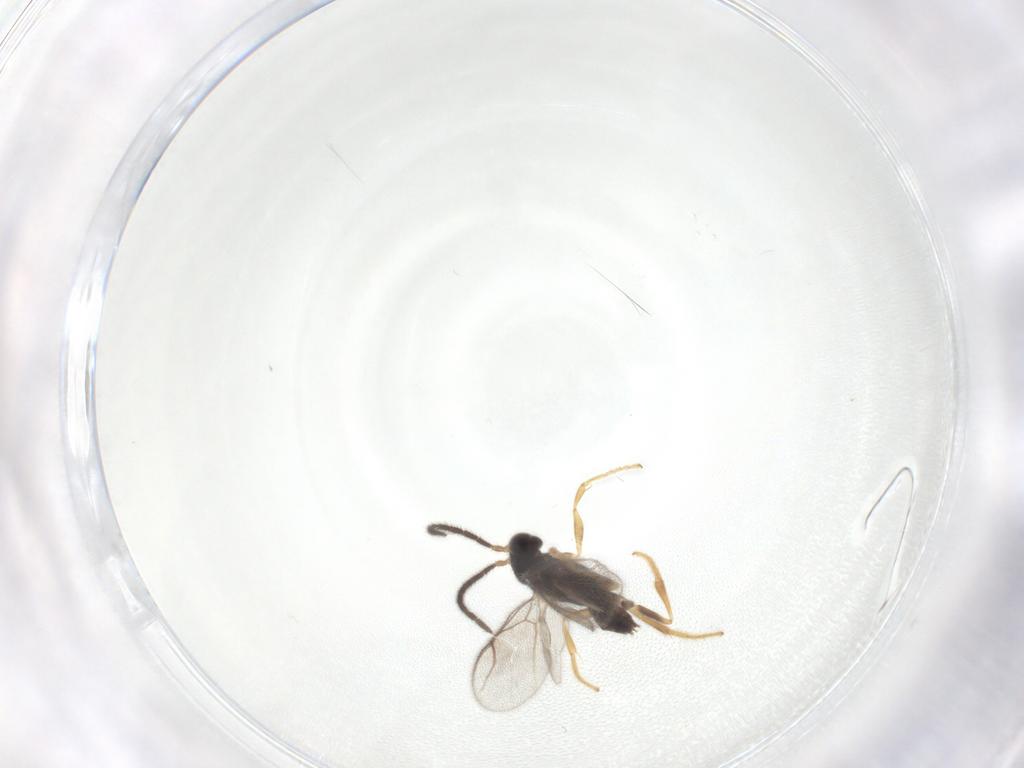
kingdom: Animalia
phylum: Arthropoda
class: Insecta
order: Hymenoptera
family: Dryinidae
